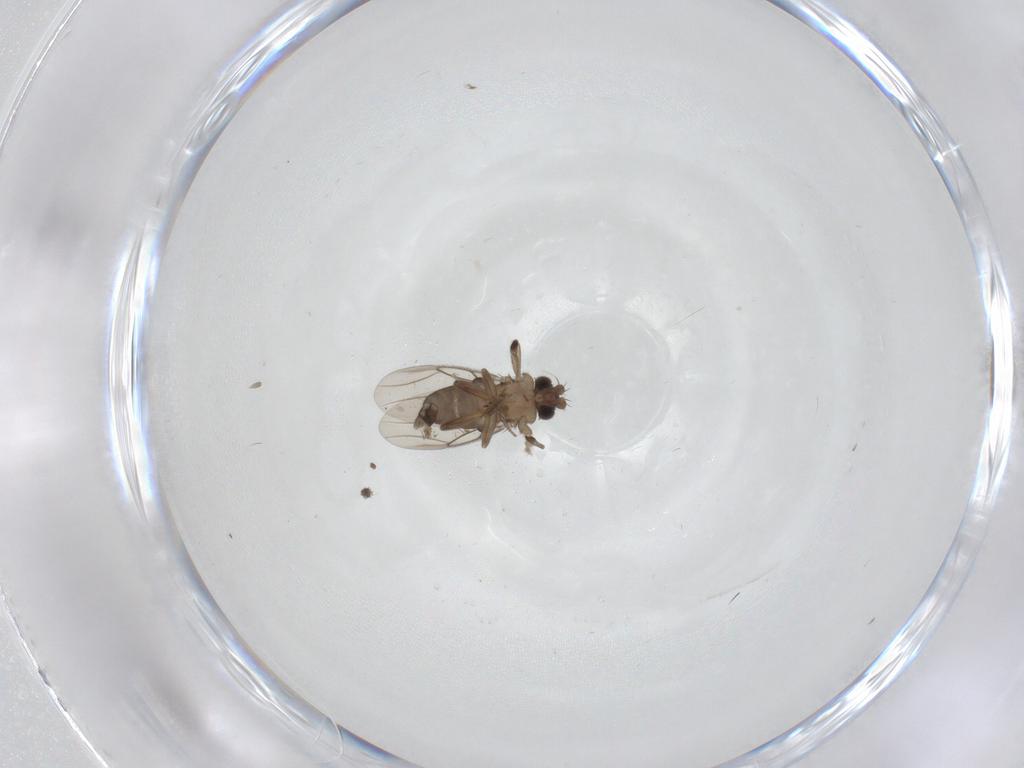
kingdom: Animalia
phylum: Arthropoda
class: Insecta
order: Diptera
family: Phoridae
